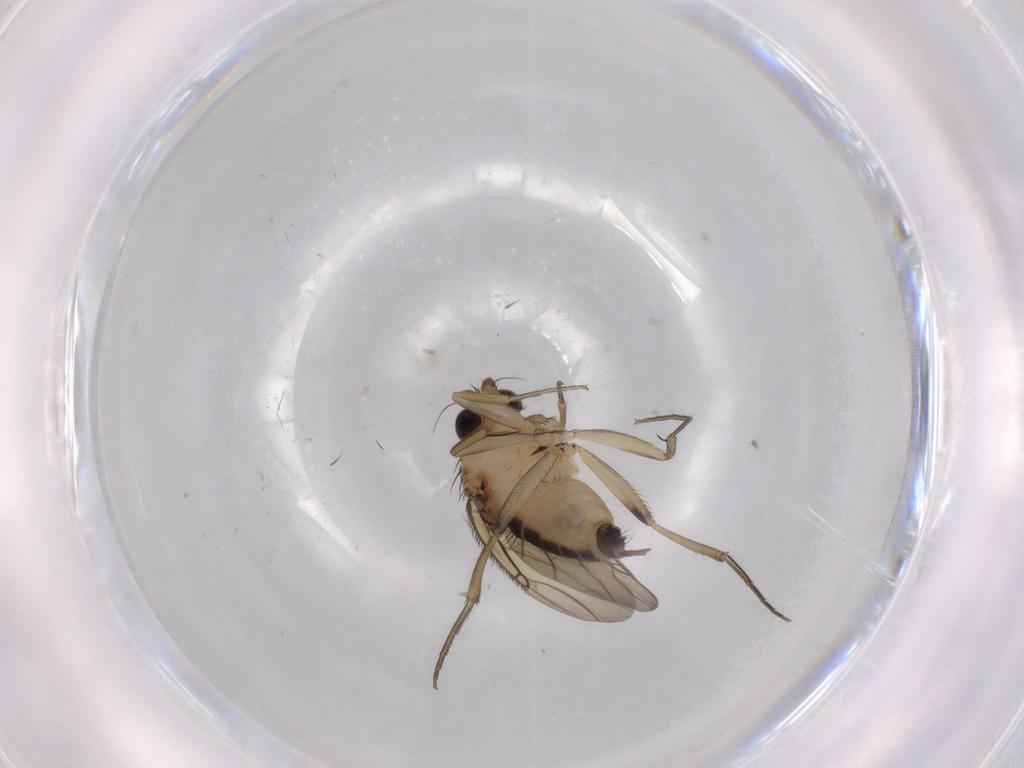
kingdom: Animalia
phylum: Arthropoda
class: Insecta
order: Diptera
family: Phoridae
